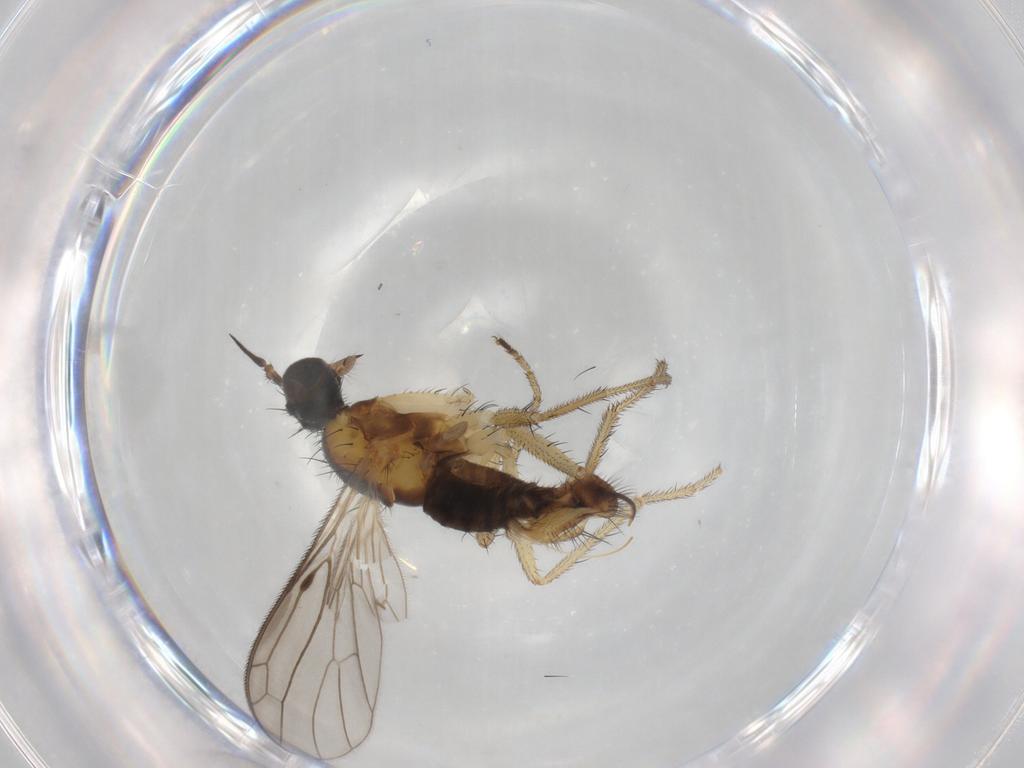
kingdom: Animalia
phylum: Arthropoda
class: Insecta
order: Diptera
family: Empididae
